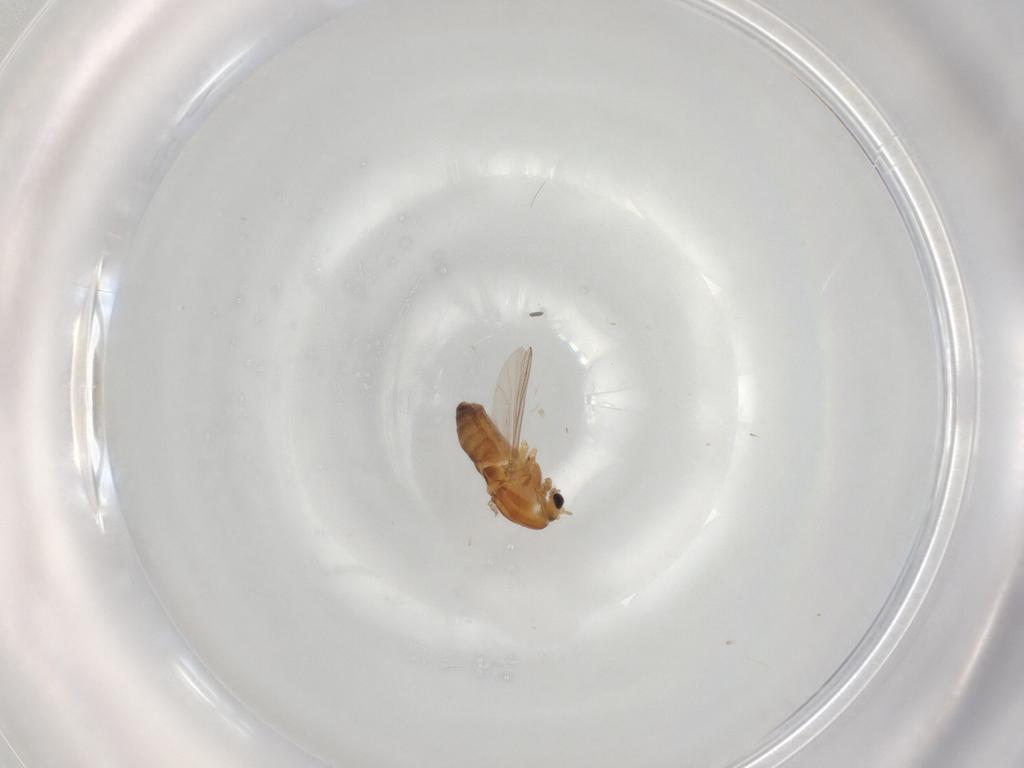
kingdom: Animalia
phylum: Arthropoda
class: Insecta
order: Diptera
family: Chironomidae
